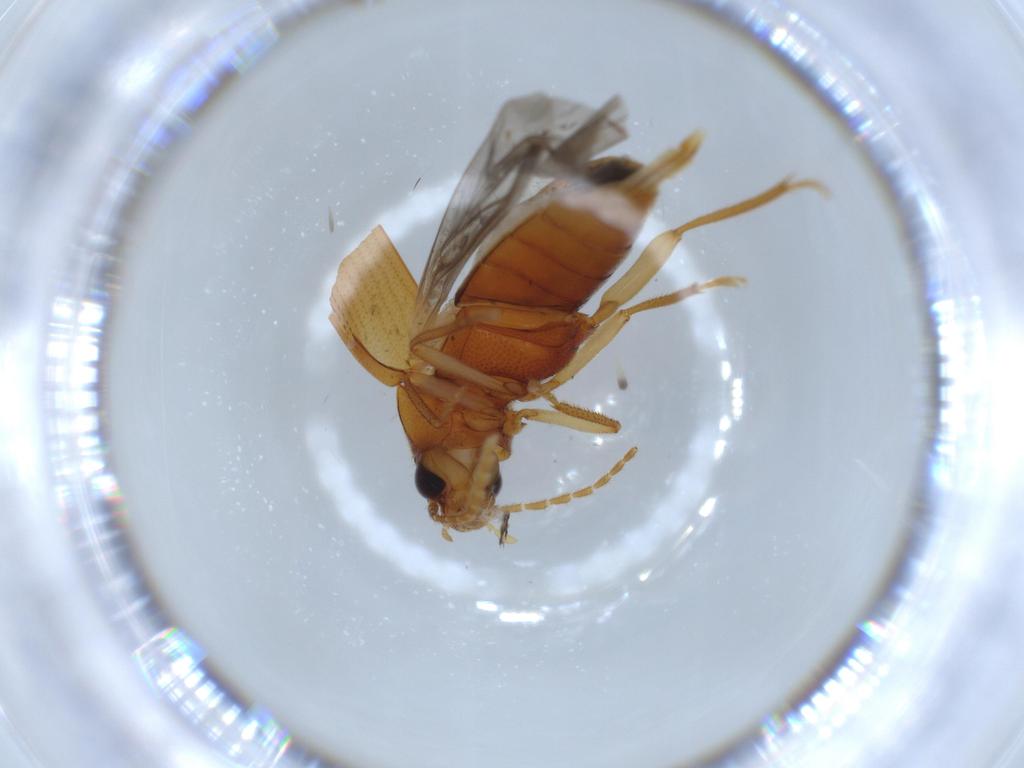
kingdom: Animalia
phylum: Arthropoda
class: Insecta
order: Coleoptera
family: Ptilodactylidae
